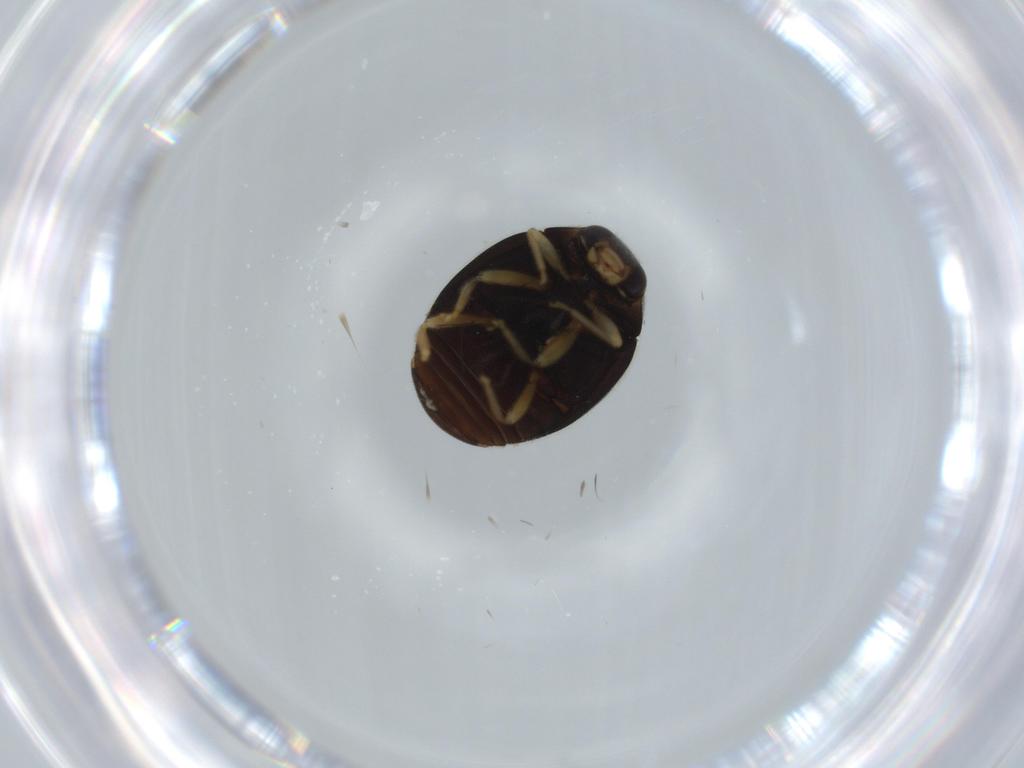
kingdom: Animalia
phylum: Arthropoda
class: Insecta
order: Coleoptera
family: Coccinellidae
